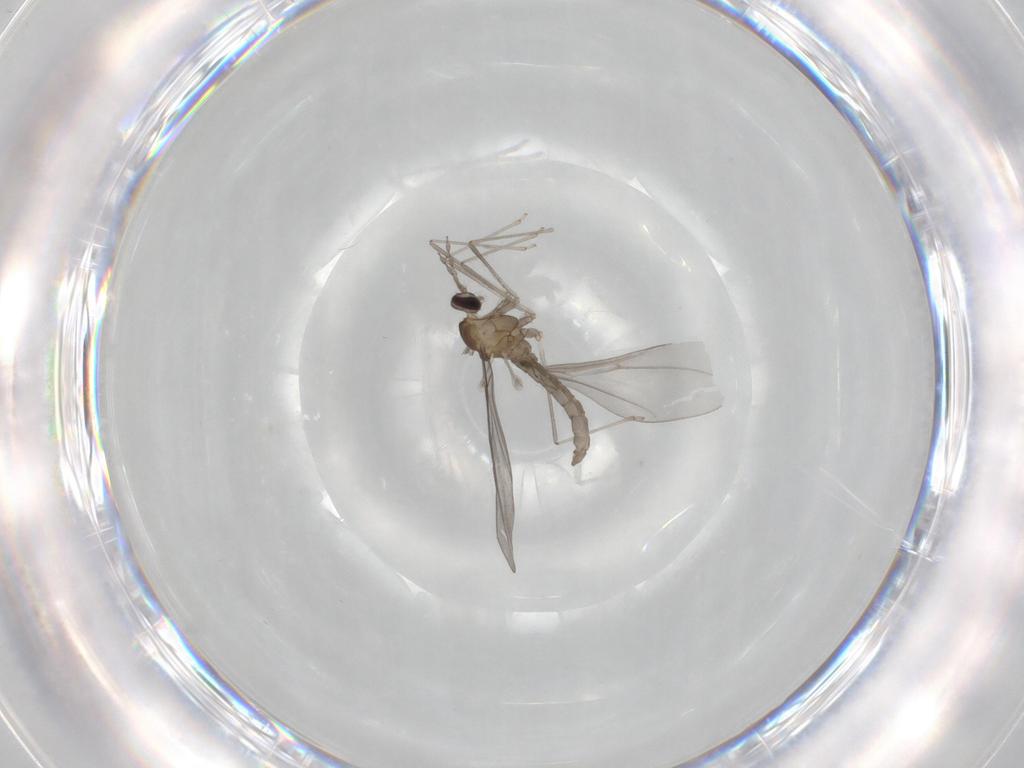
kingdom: Animalia
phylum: Arthropoda
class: Insecta
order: Diptera
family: Cecidomyiidae
